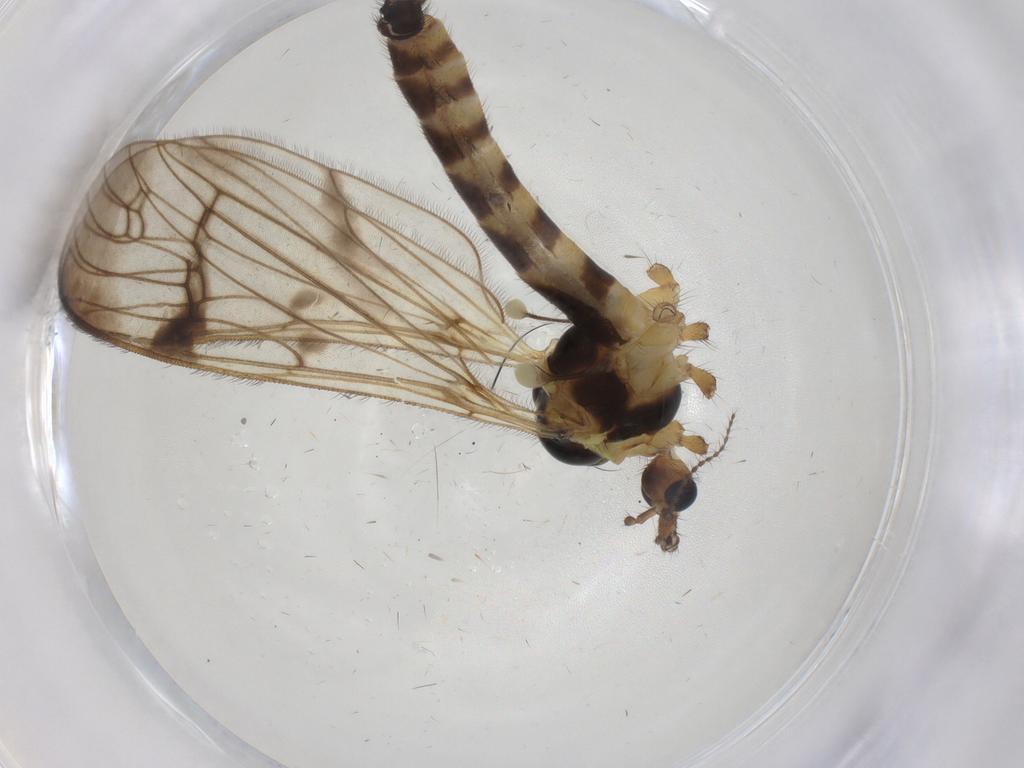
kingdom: Animalia
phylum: Arthropoda
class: Insecta
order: Diptera
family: Limoniidae
